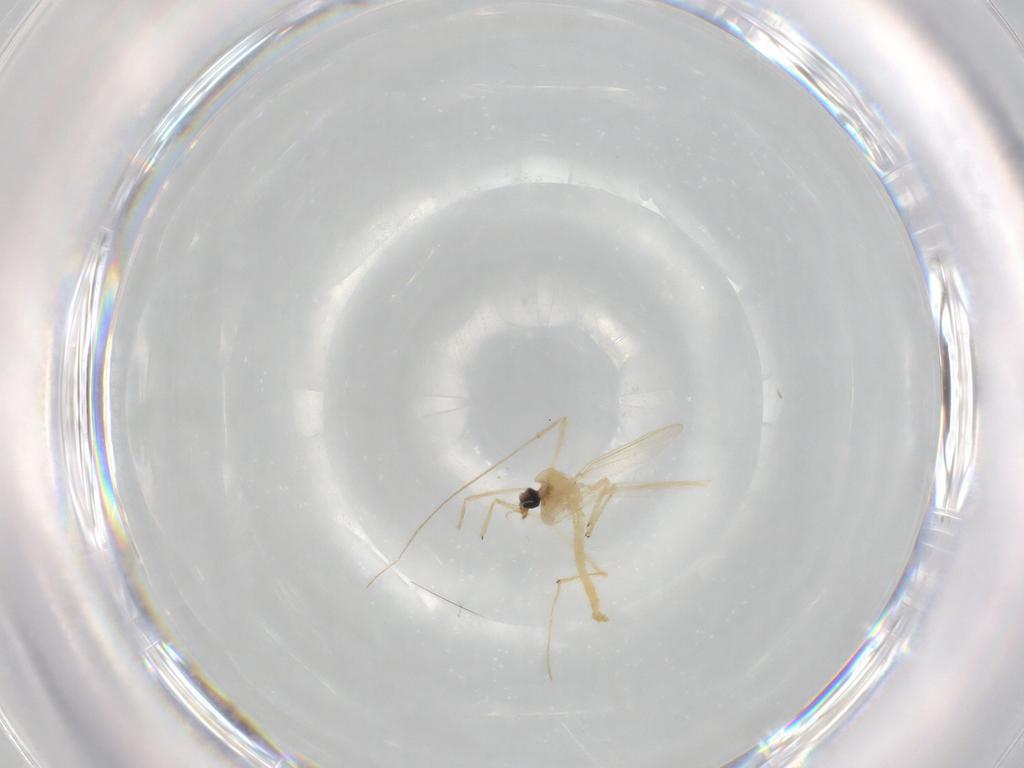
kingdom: Animalia
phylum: Arthropoda
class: Insecta
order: Diptera
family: Chironomidae
